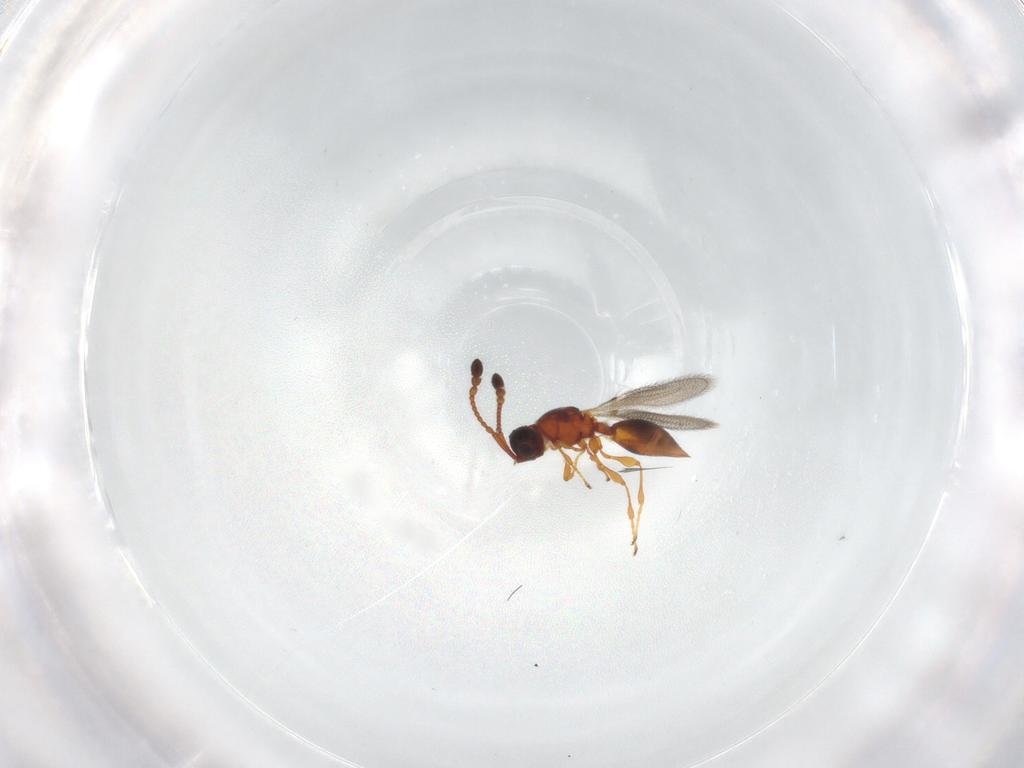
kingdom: Animalia
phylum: Arthropoda
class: Insecta
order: Hymenoptera
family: Diapriidae
